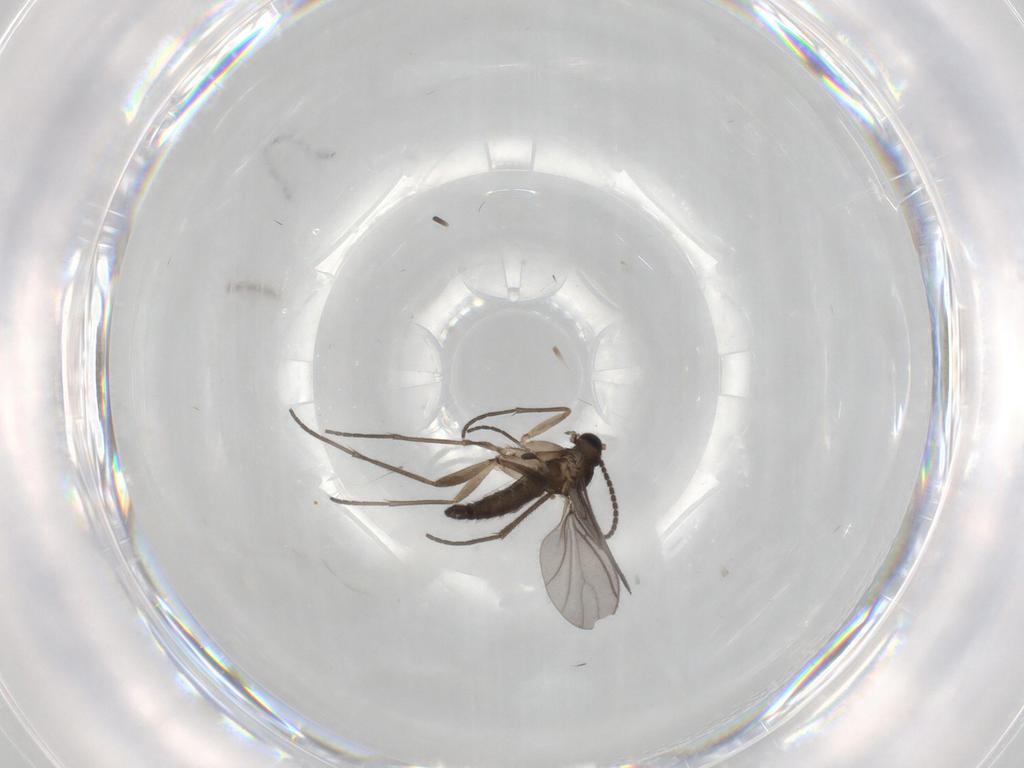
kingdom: Animalia
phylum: Arthropoda
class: Insecta
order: Diptera
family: Sciaridae
